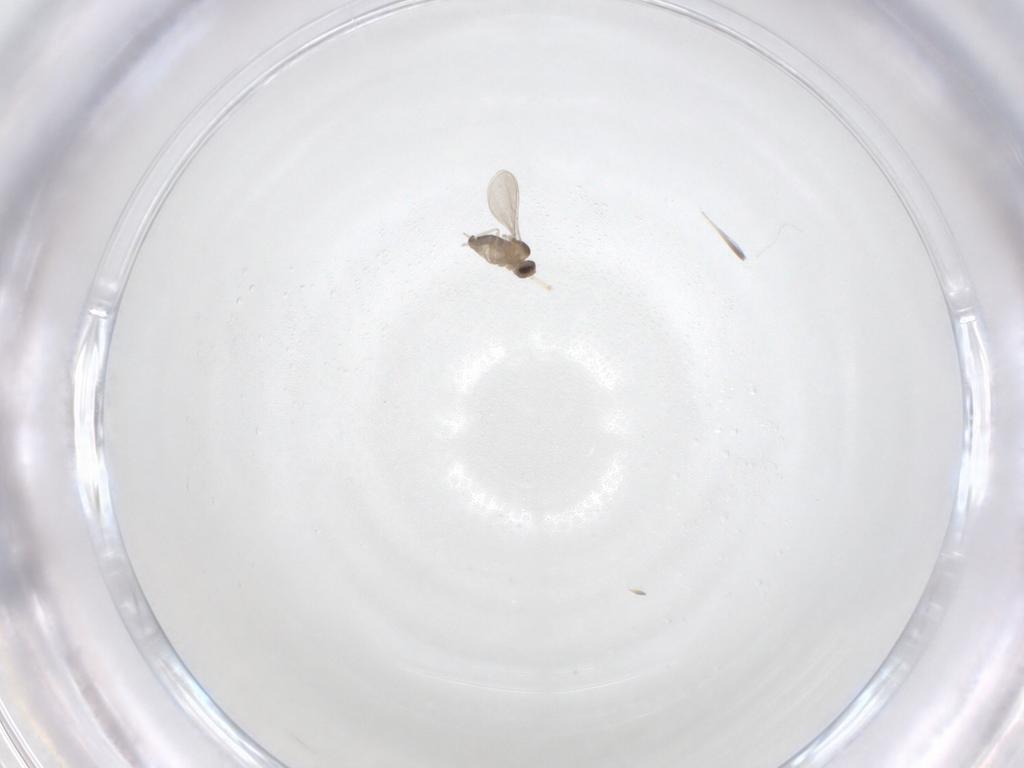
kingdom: Animalia
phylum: Arthropoda
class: Insecta
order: Diptera
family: Cecidomyiidae
